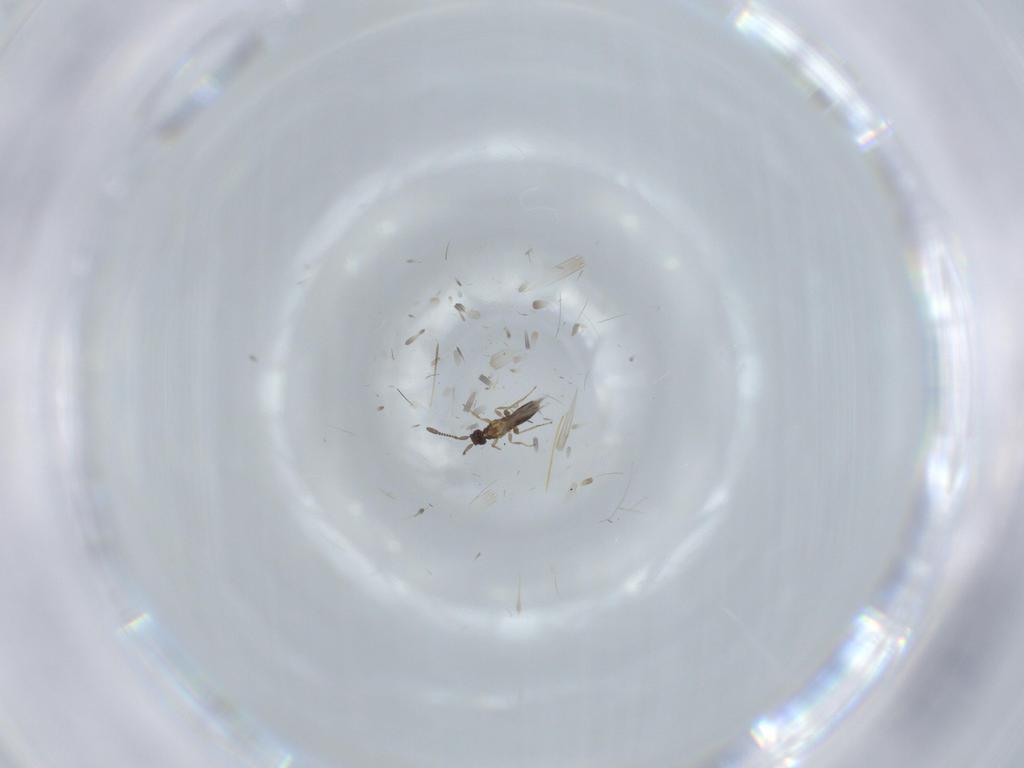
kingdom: Animalia
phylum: Arthropoda
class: Insecta
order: Hymenoptera
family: Mymaridae
